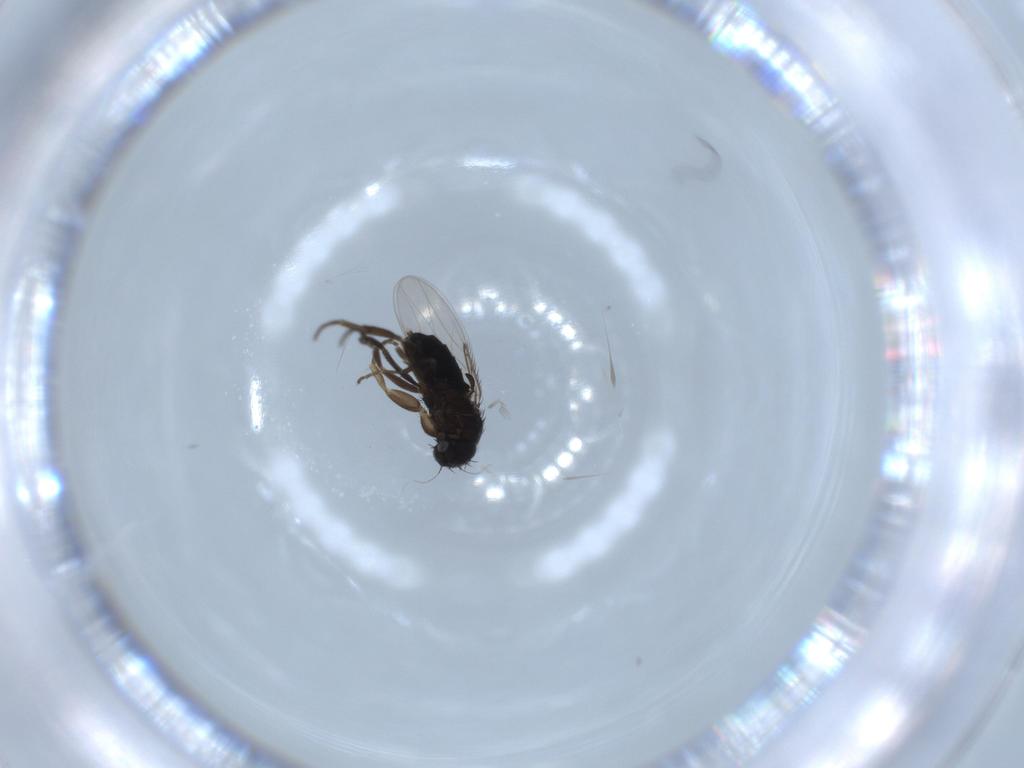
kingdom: Animalia
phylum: Arthropoda
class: Insecta
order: Diptera
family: Phoridae
